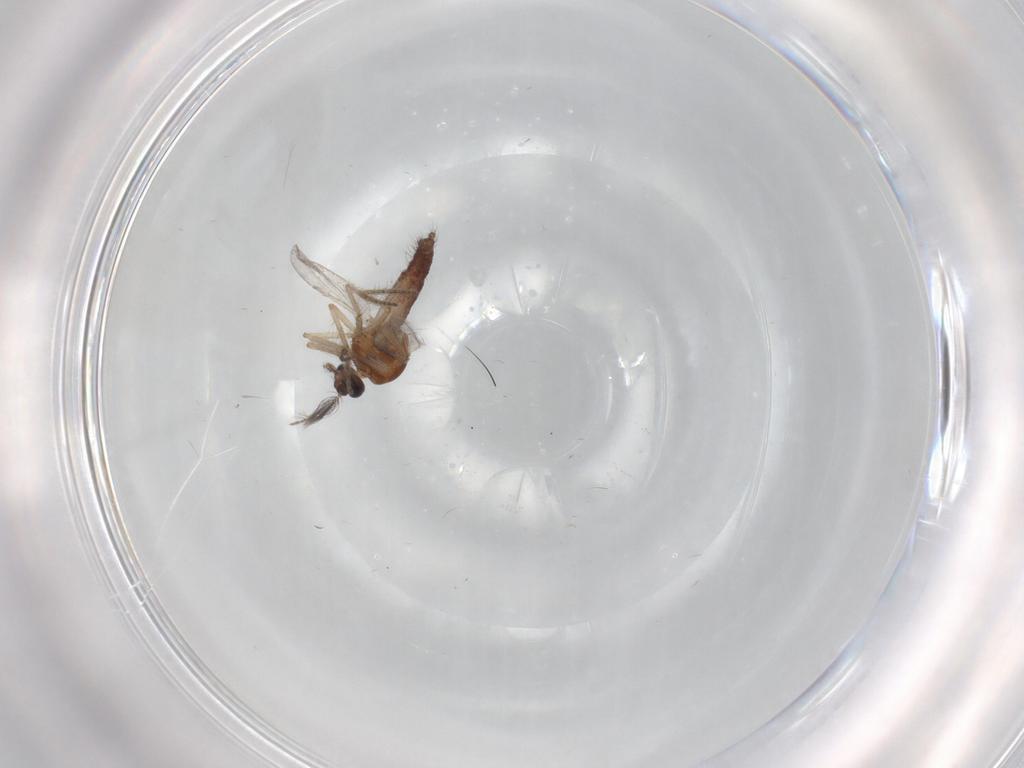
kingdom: Animalia
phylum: Arthropoda
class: Insecta
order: Diptera
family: Ceratopogonidae
